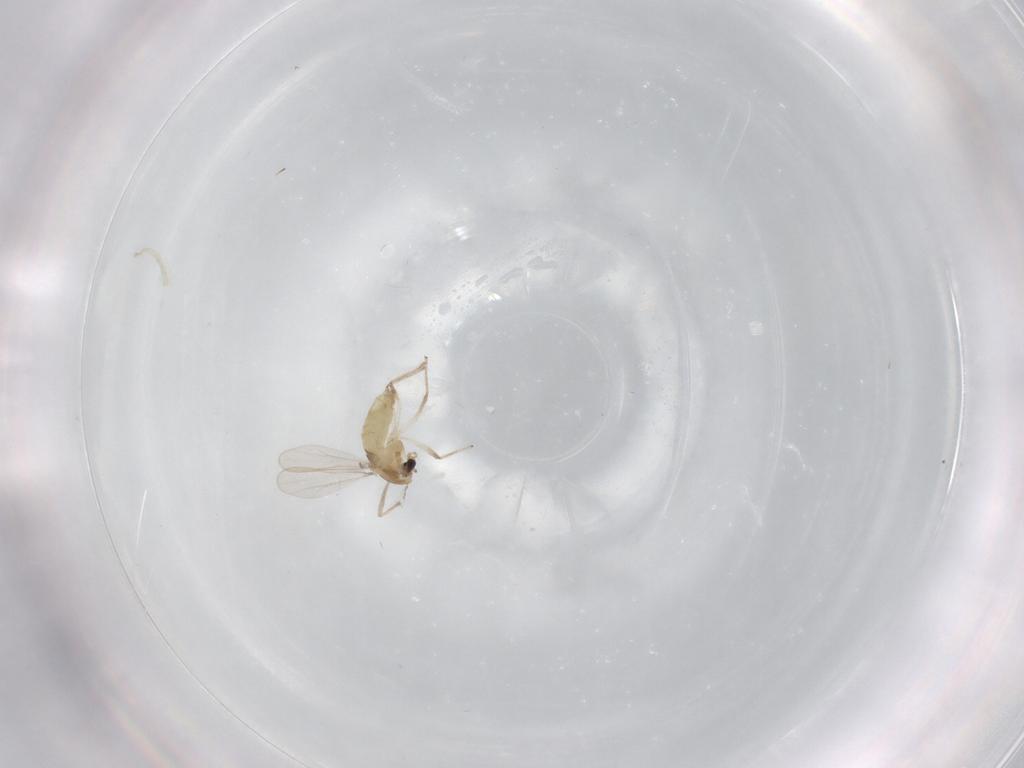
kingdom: Animalia
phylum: Arthropoda
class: Insecta
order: Diptera
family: Chironomidae
